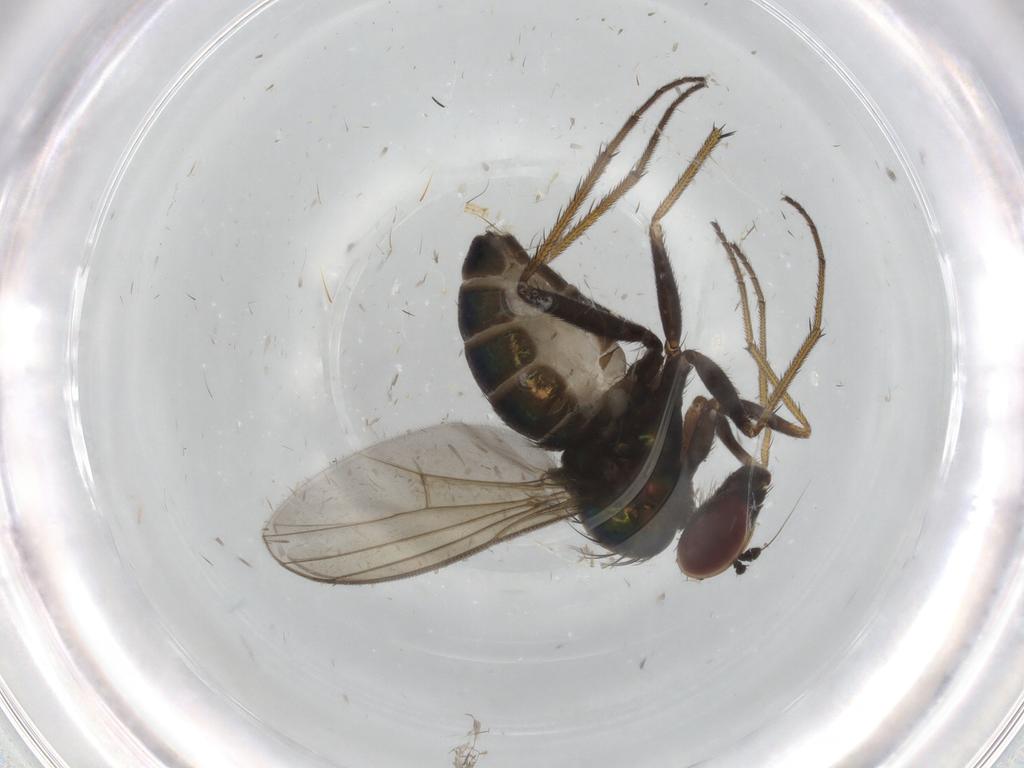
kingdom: Animalia
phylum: Arthropoda
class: Insecta
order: Diptera
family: Dolichopodidae
